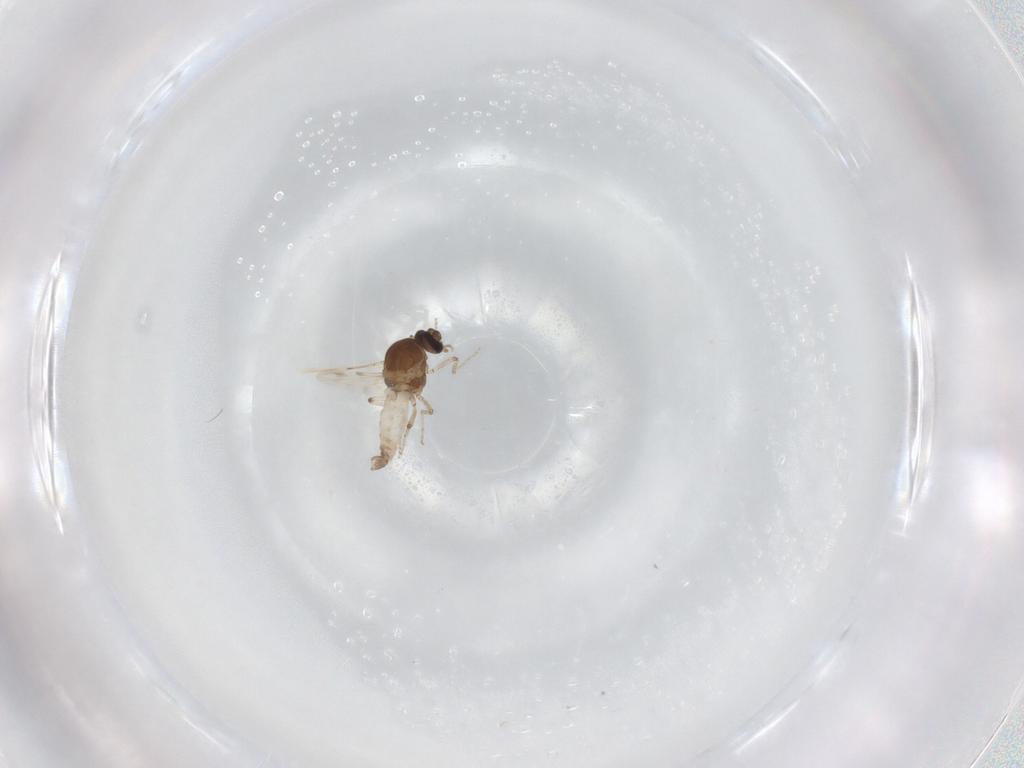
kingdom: Animalia
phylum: Arthropoda
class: Insecta
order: Diptera
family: Ceratopogonidae
